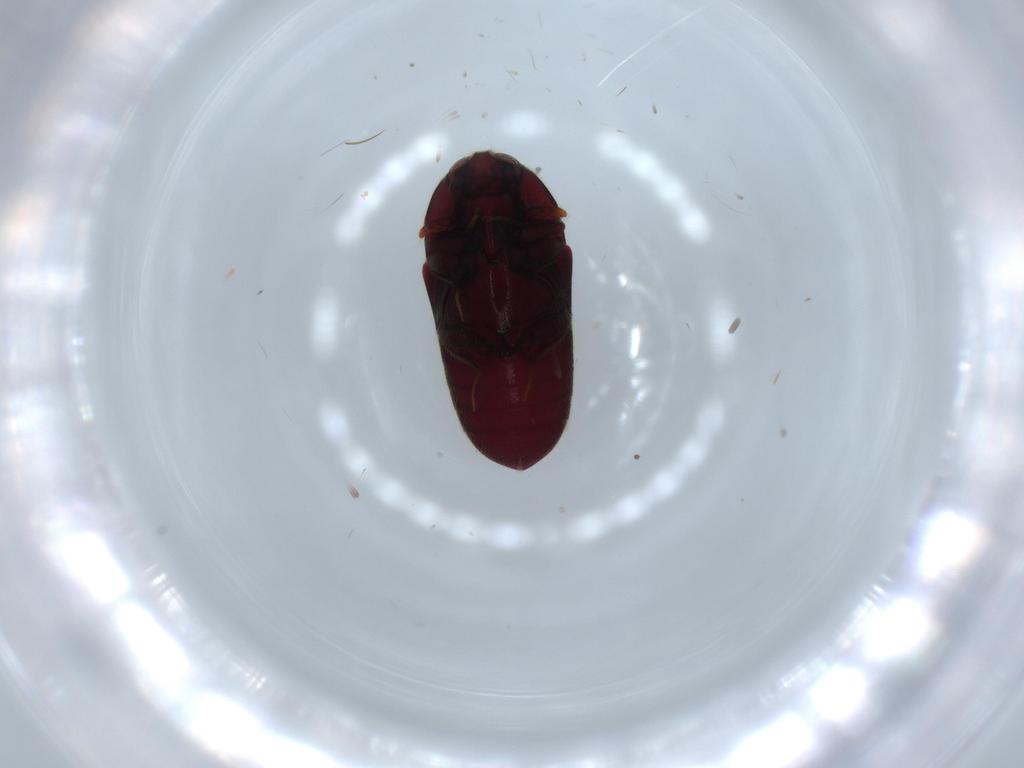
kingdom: Animalia
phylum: Arthropoda
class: Insecta
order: Coleoptera
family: Throscidae
